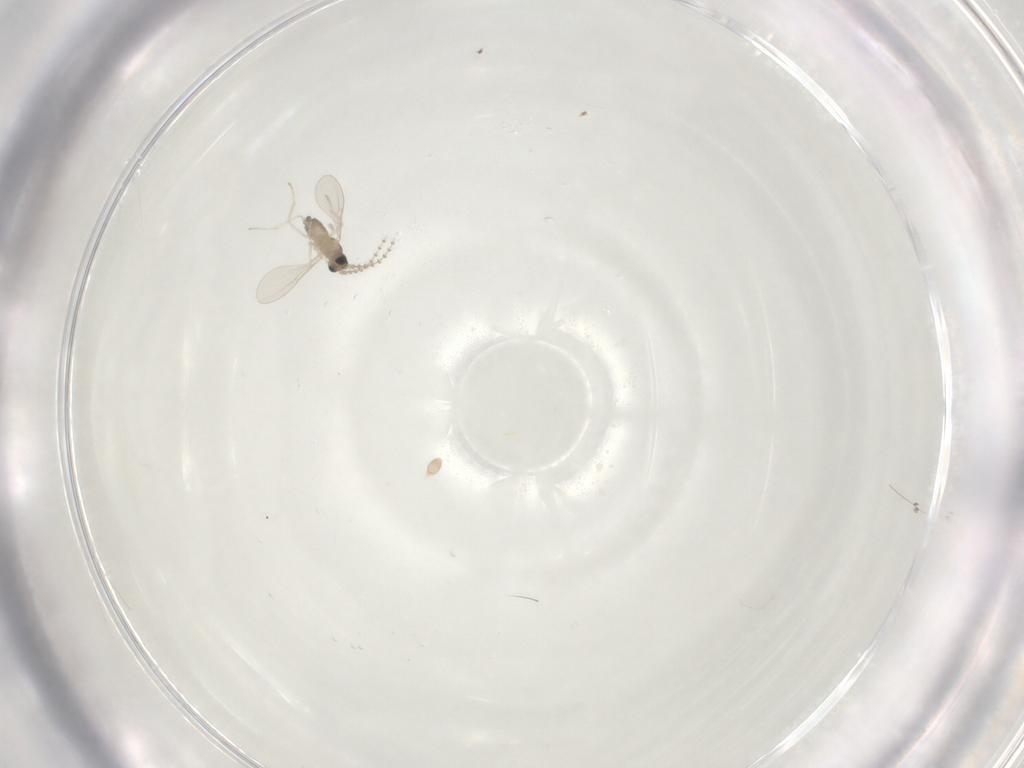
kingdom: Animalia
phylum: Arthropoda
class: Insecta
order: Diptera
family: Cecidomyiidae
